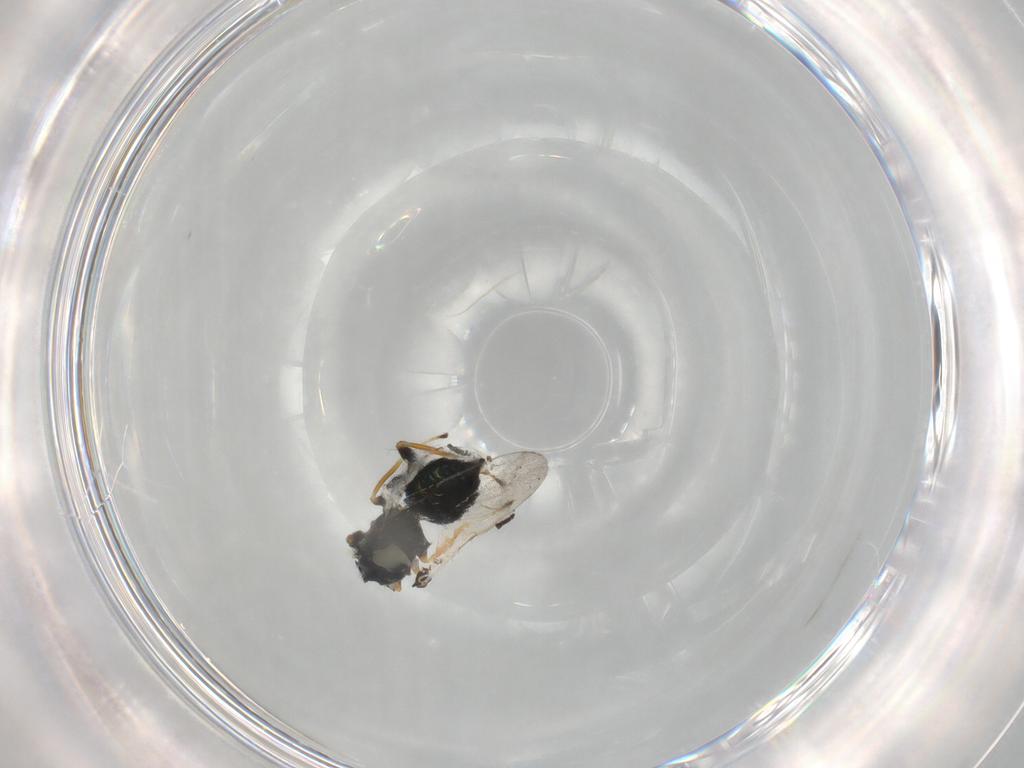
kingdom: Animalia
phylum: Arthropoda
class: Insecta
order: Hymenoptera
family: Pteromalidae
